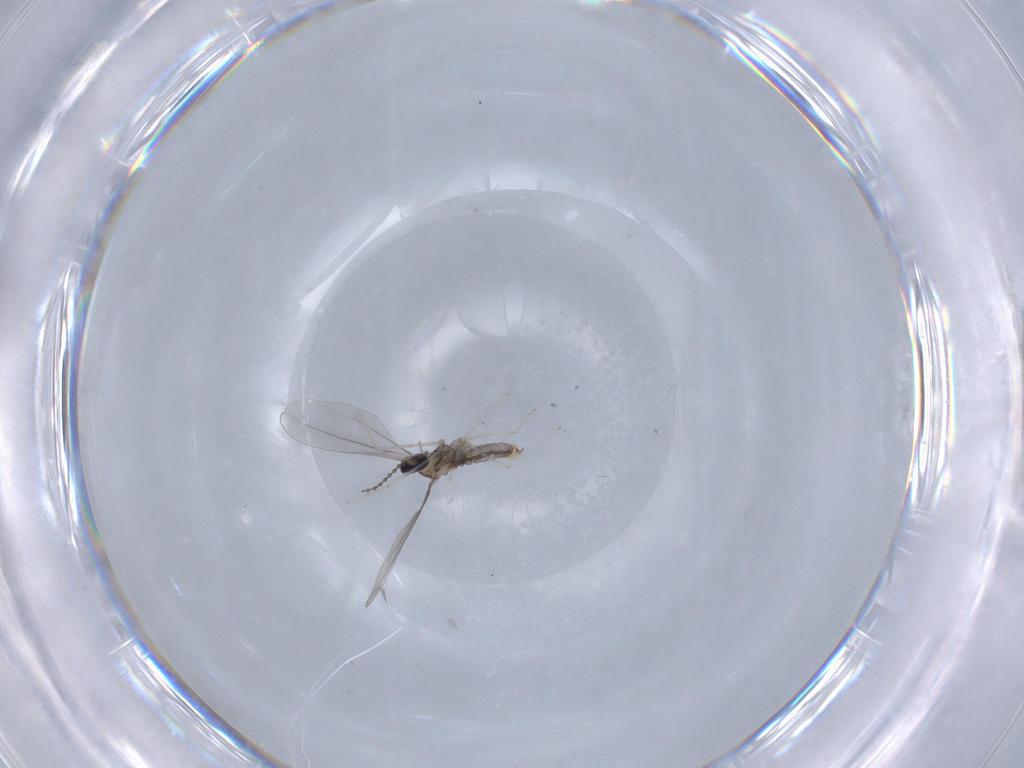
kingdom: Animalia
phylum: Arthropoda
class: Insecta
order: Diptera
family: Cecidomyiidae
